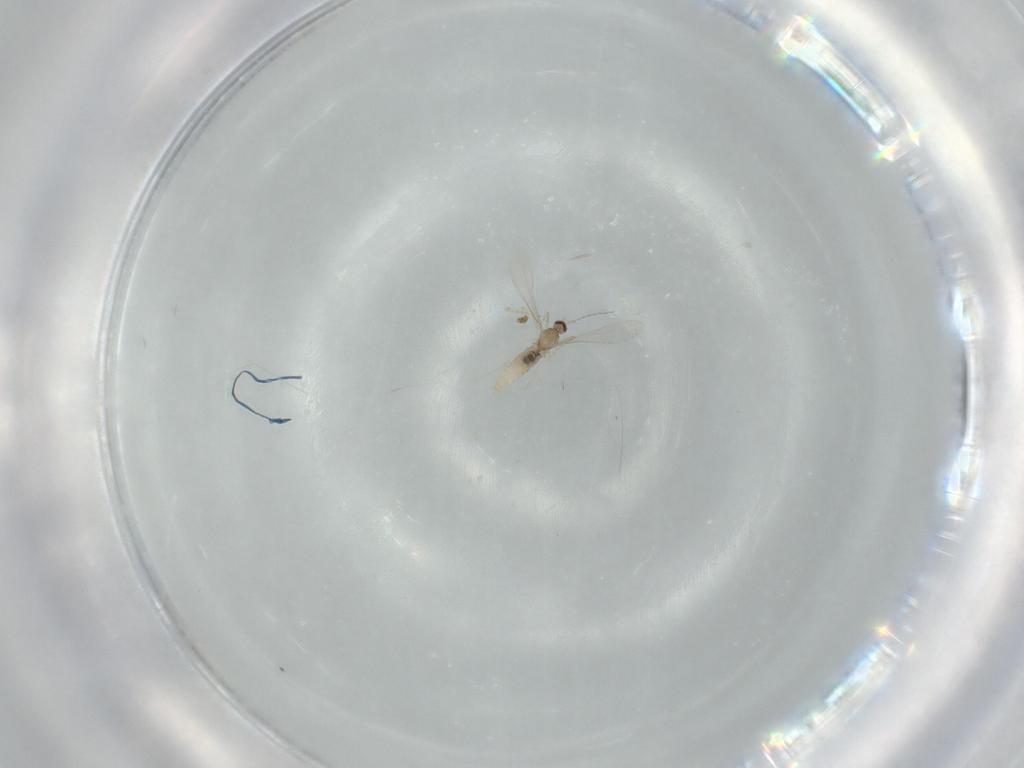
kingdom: Animalia
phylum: Arthropoda
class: Insecta
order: Diptera
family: Cecidomyiidae
